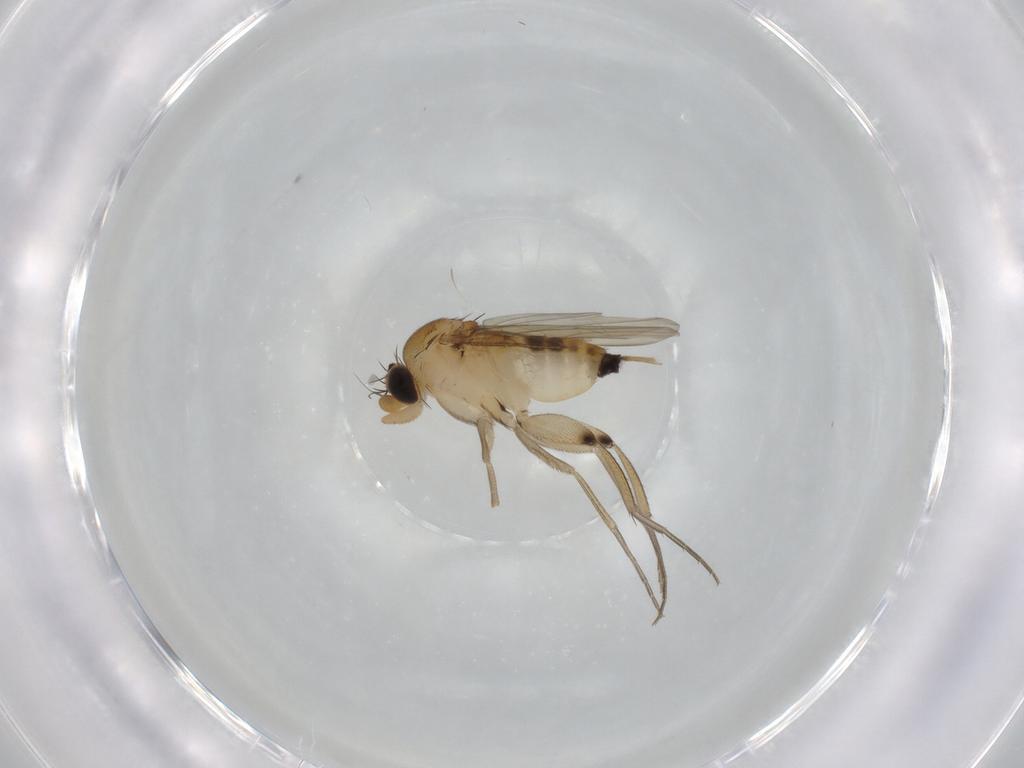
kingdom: Animalia
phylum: Arthropoda
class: Insecta
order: Diptera
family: Phoridae
